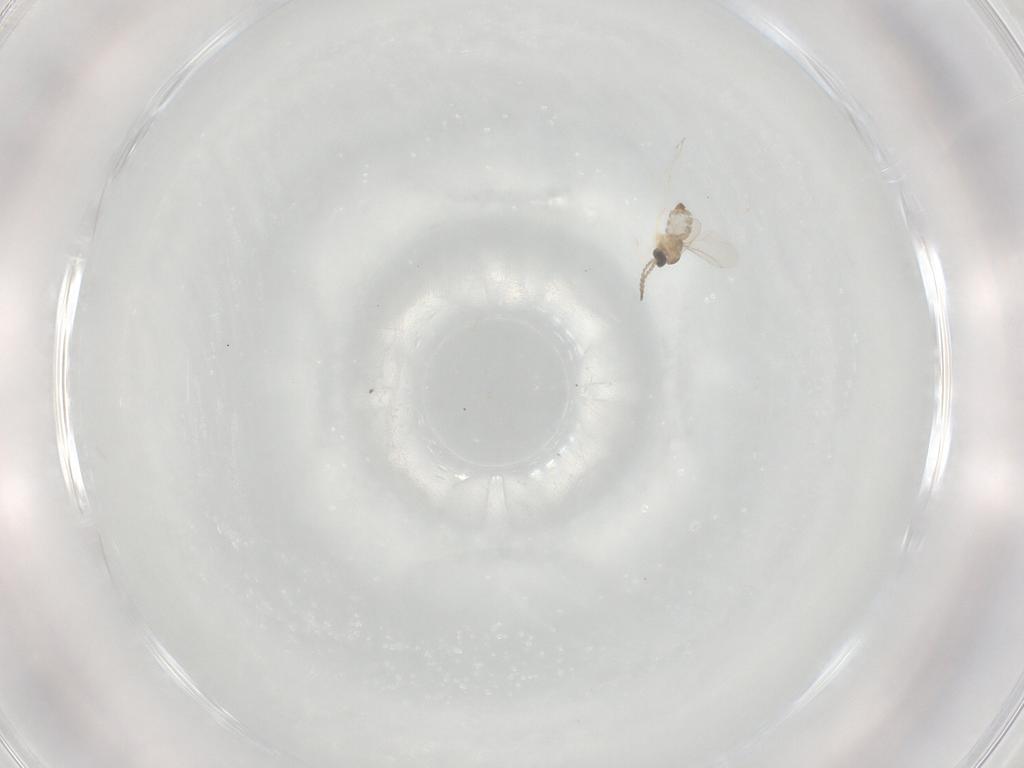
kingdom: Animalia
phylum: Arthropoda
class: Insecta
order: Diptera
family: Cecidomyiidae
